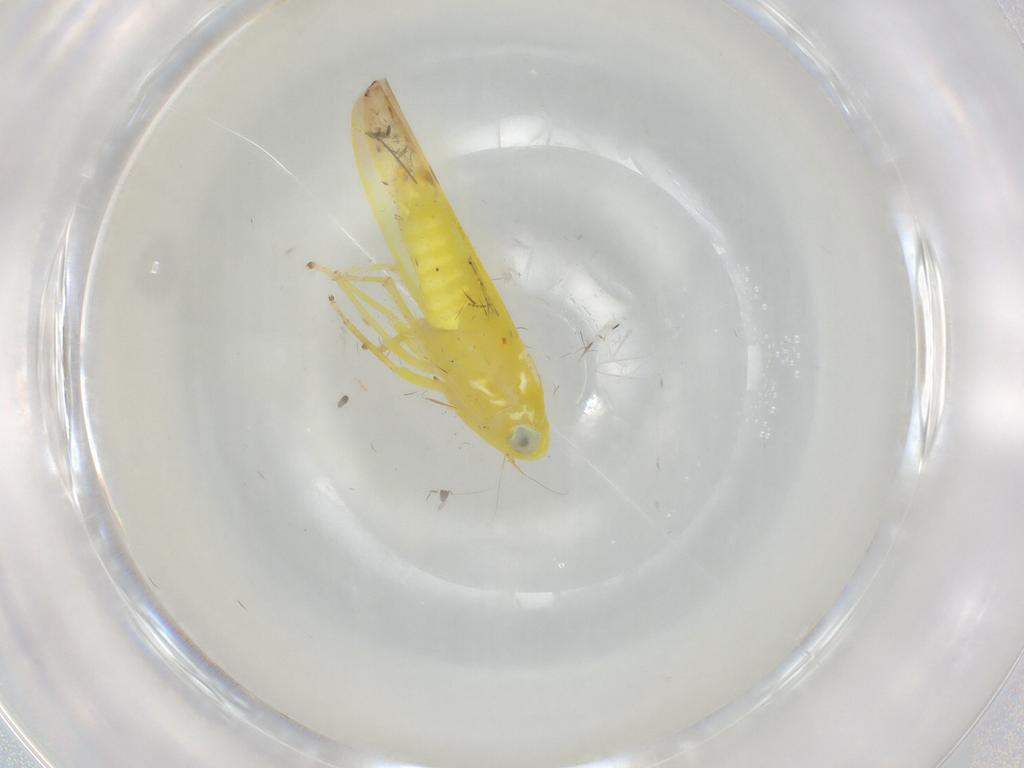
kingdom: Animalia
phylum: Arthropoda
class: Insecta
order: Hemiptera
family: Cicadellidae
